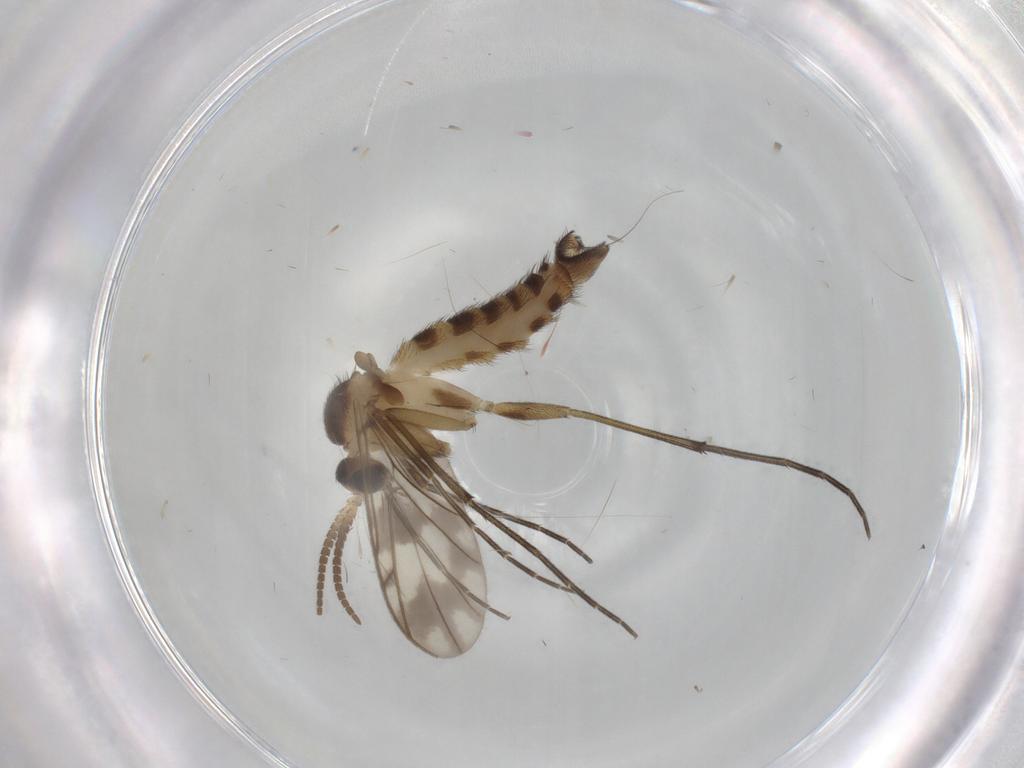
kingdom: Animalia
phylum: Arthropoda
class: Insecta
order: Diptera
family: Keroplatidae
